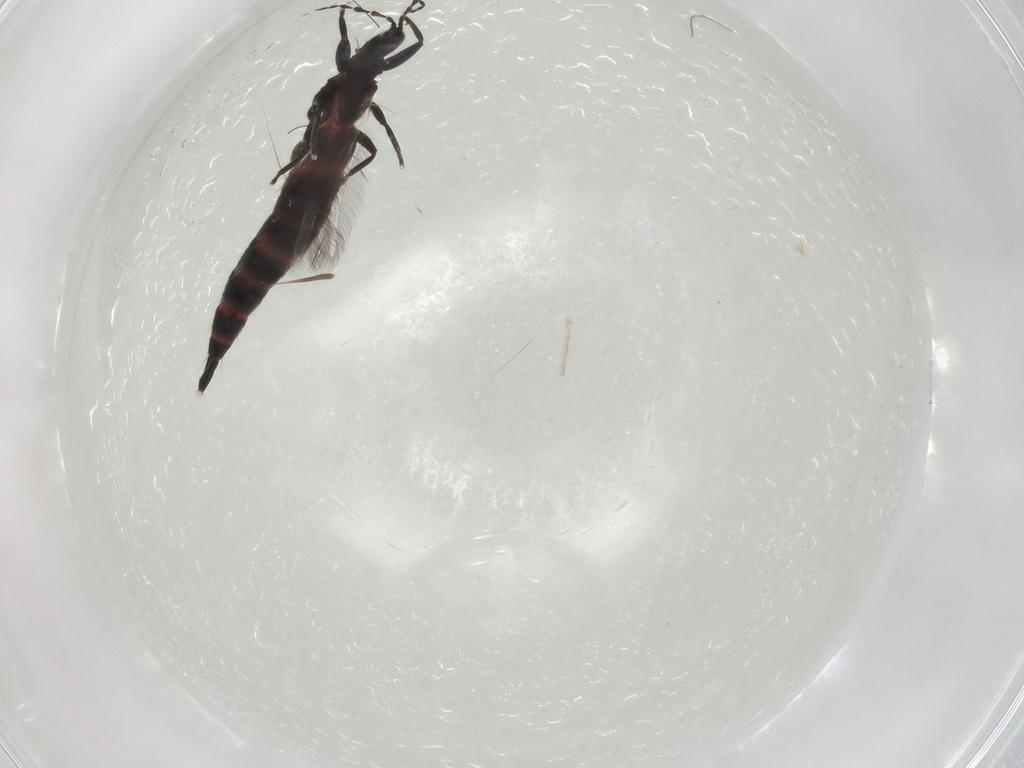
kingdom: Animalia
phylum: Arthropoda
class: Insecta
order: Thysanoptera
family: Phlaeothripidae
